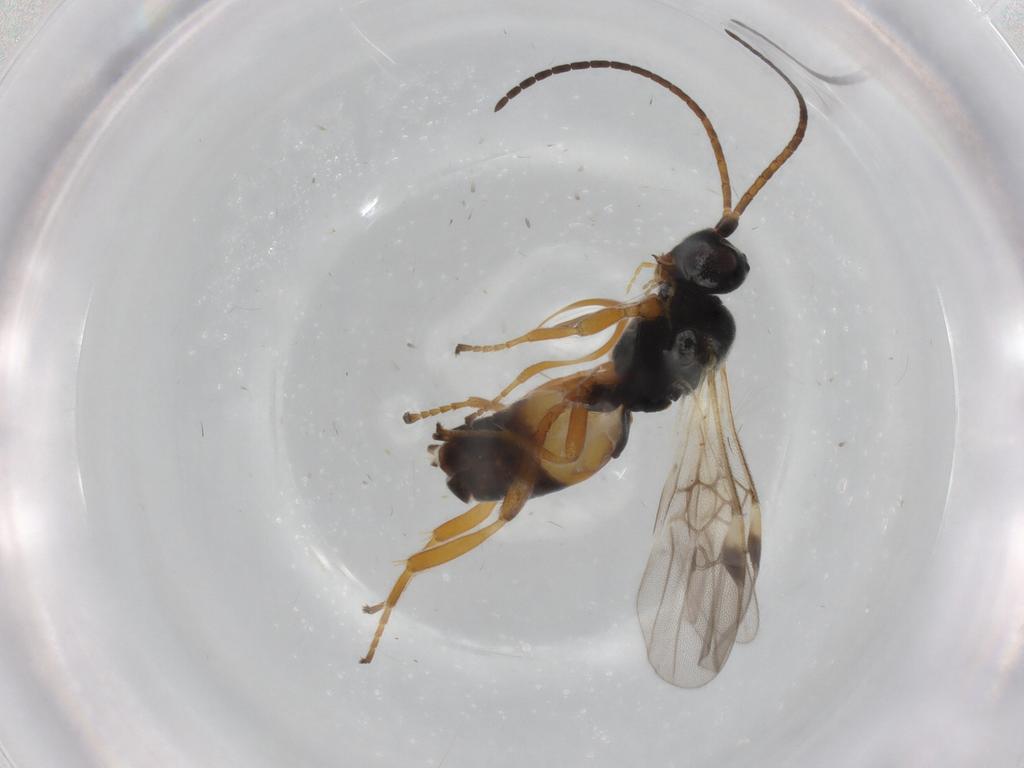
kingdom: Animalia
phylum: Arthropoda
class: Insecta
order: Hymenoptera
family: Braconidae
